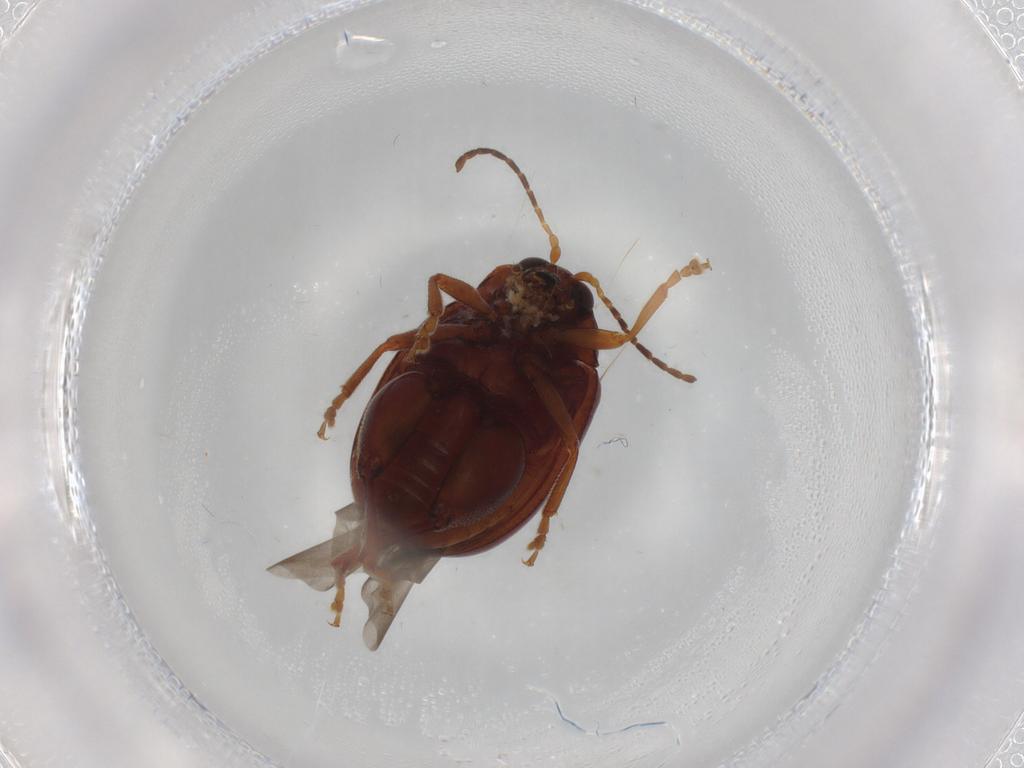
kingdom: Animalia
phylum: Arthropoda
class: Insecta
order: Coleoptera
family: Chrysomelidae
